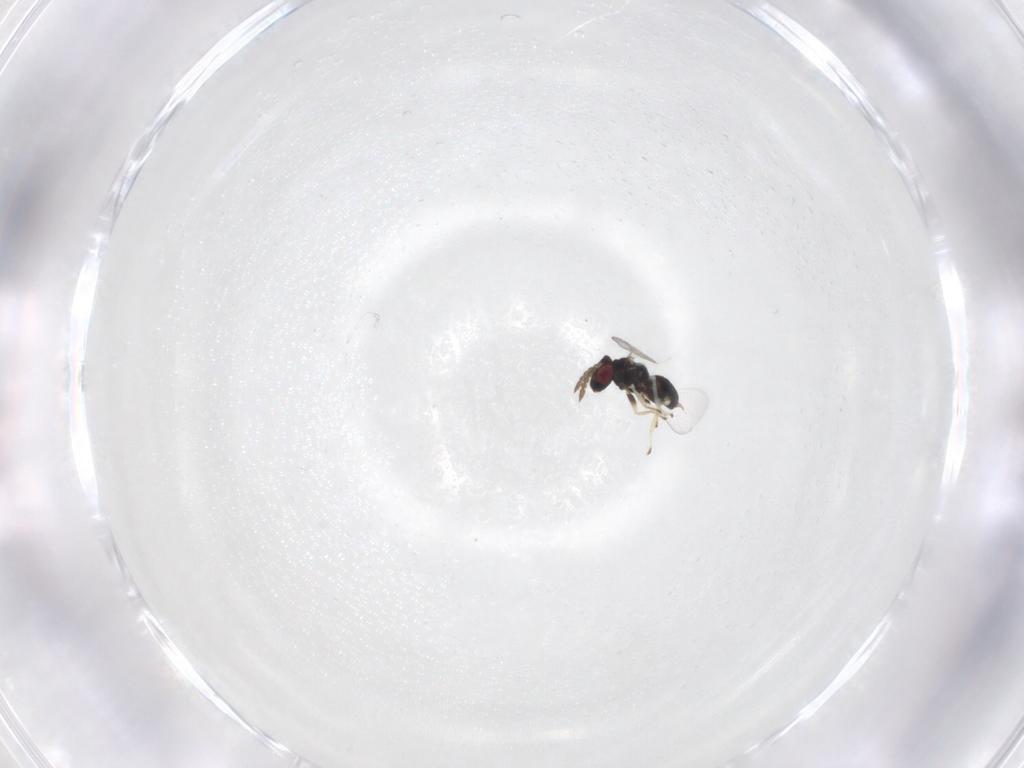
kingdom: Animalia
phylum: Arthropoda
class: Insecta
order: Hymenoptera
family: Eulophidae
